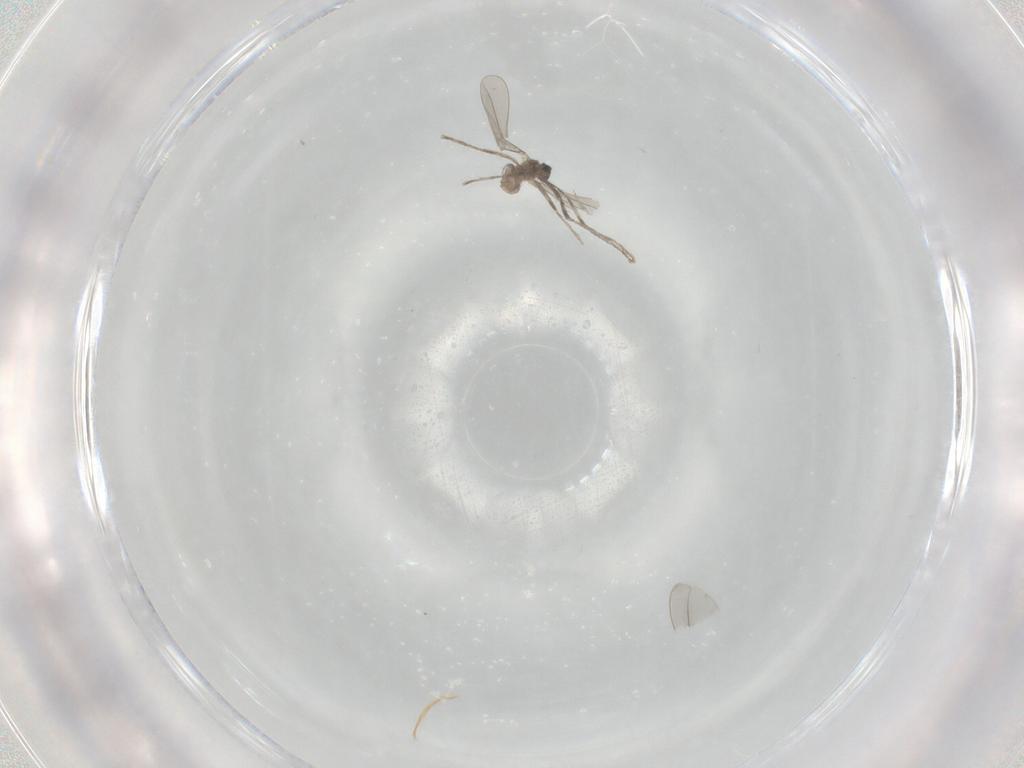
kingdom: Animalia
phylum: Arthropoda
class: Insecta
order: Diptera
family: Cecidomyiidae
